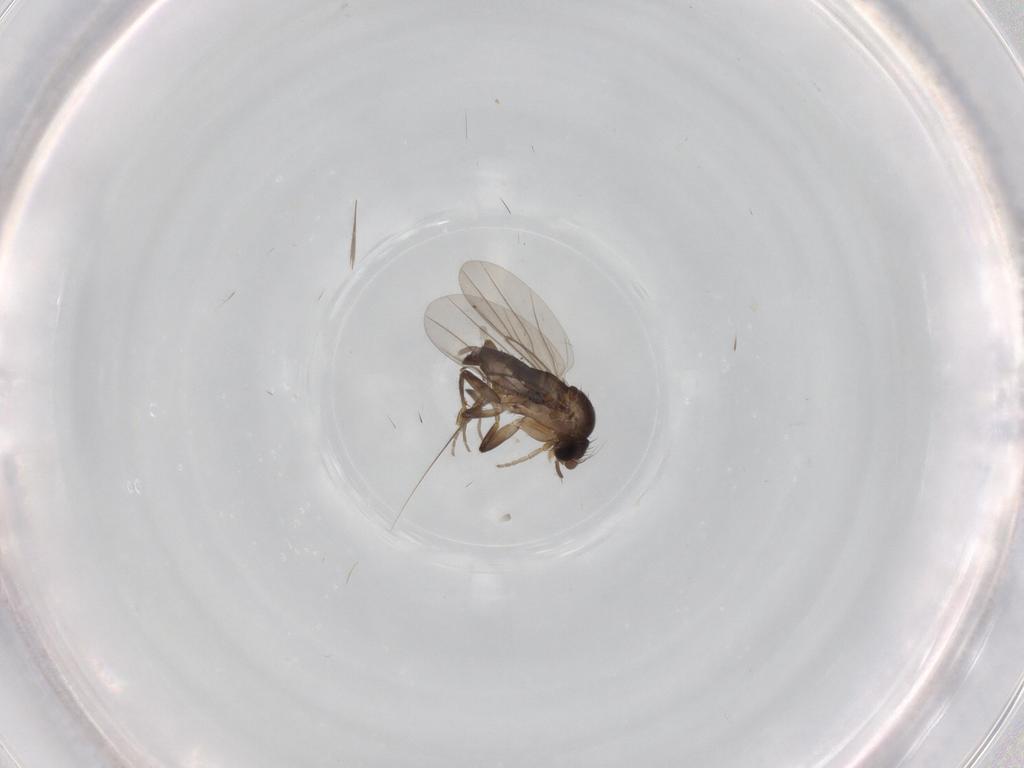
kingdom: Animalia
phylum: Arthropoda
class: Insecta
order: Diptera
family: Phoridae
